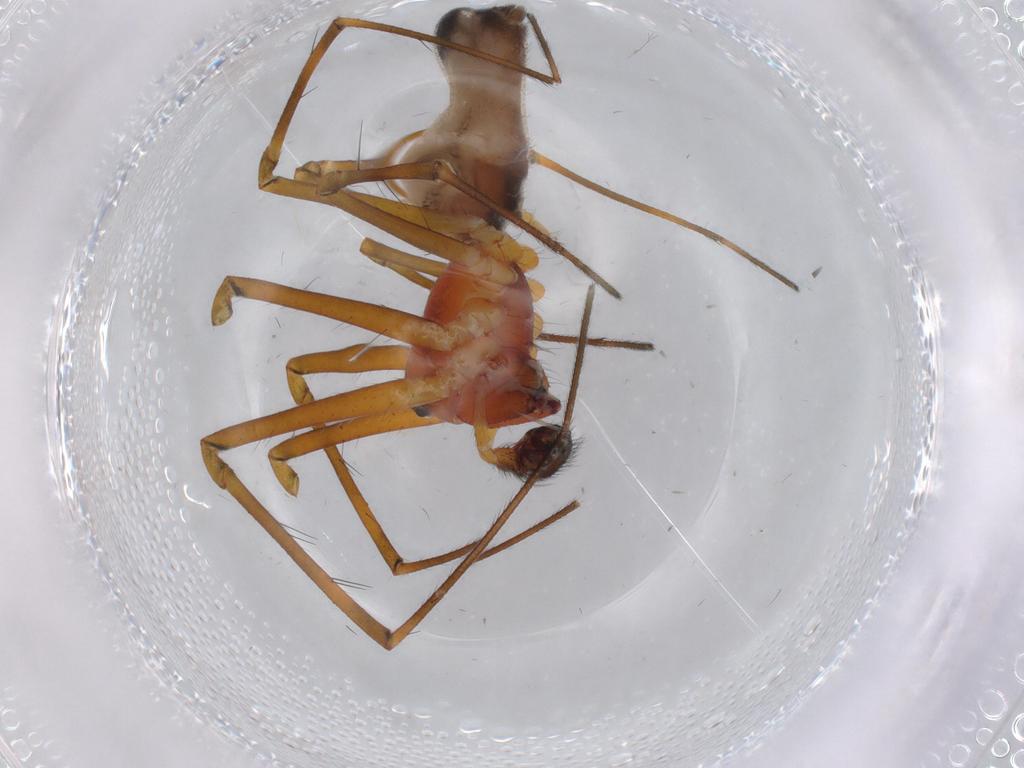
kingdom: Animalia
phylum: Arthropoda
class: Arachnida
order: Araneae
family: Linyphiidae
